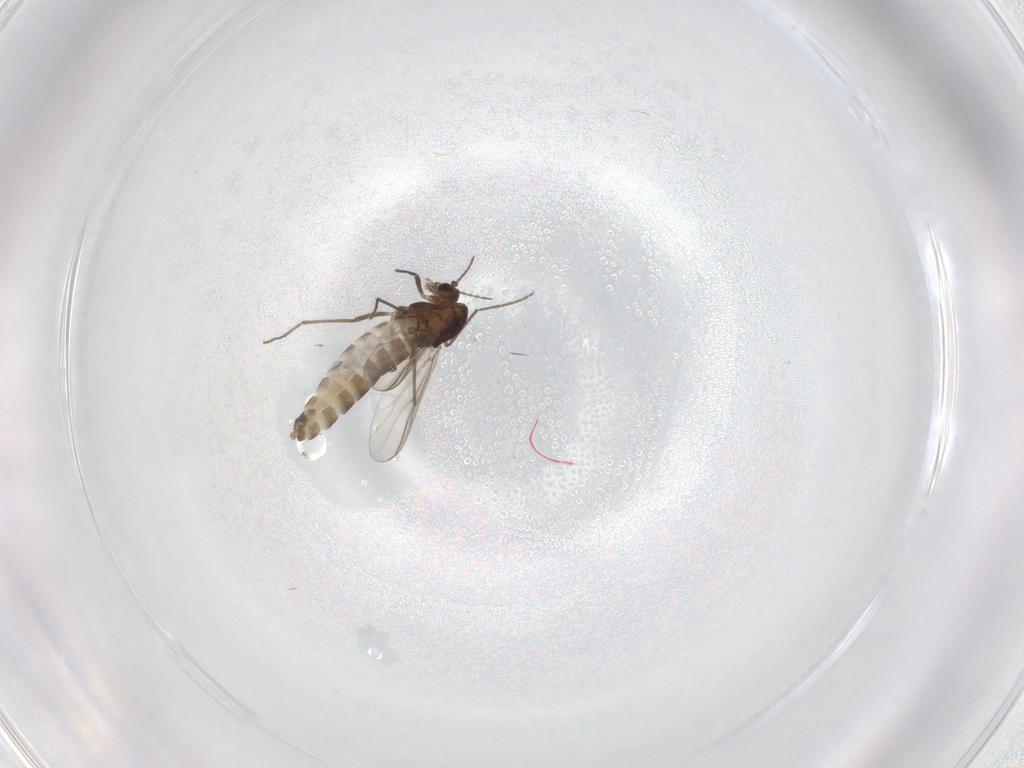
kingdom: Animalia
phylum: Arthropoda
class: Insecta
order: Diptera
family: Chironomidae
